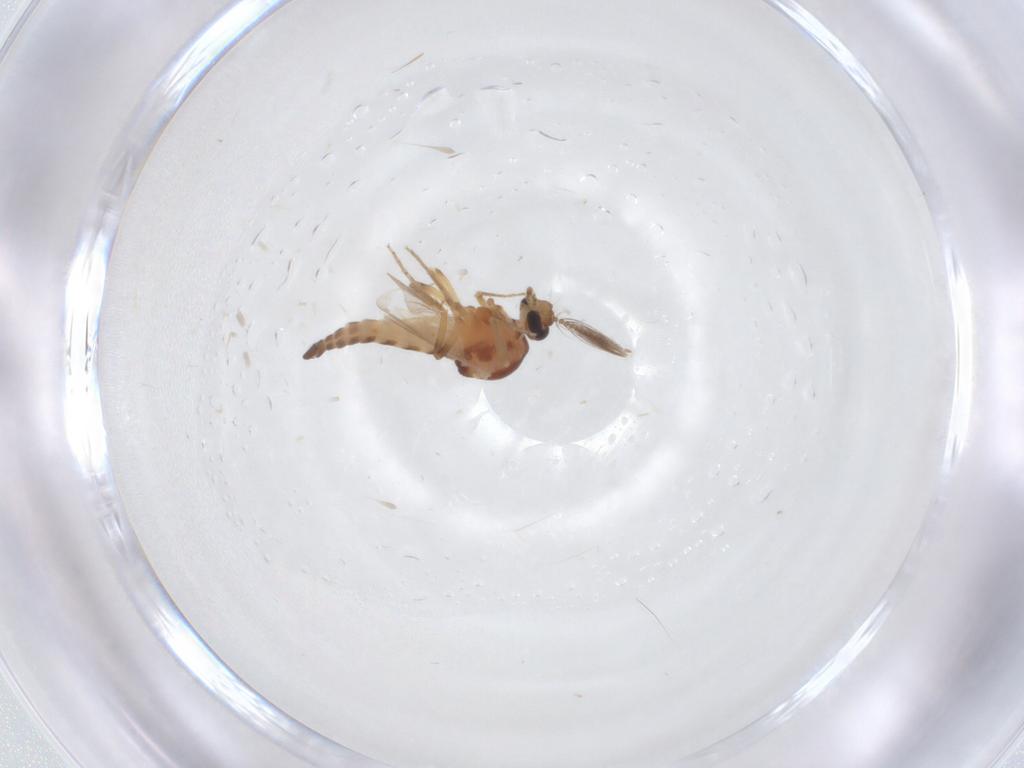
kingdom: Animalia
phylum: Arthropoda
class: Insecta
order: Diptera
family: Ceratopogonidae
